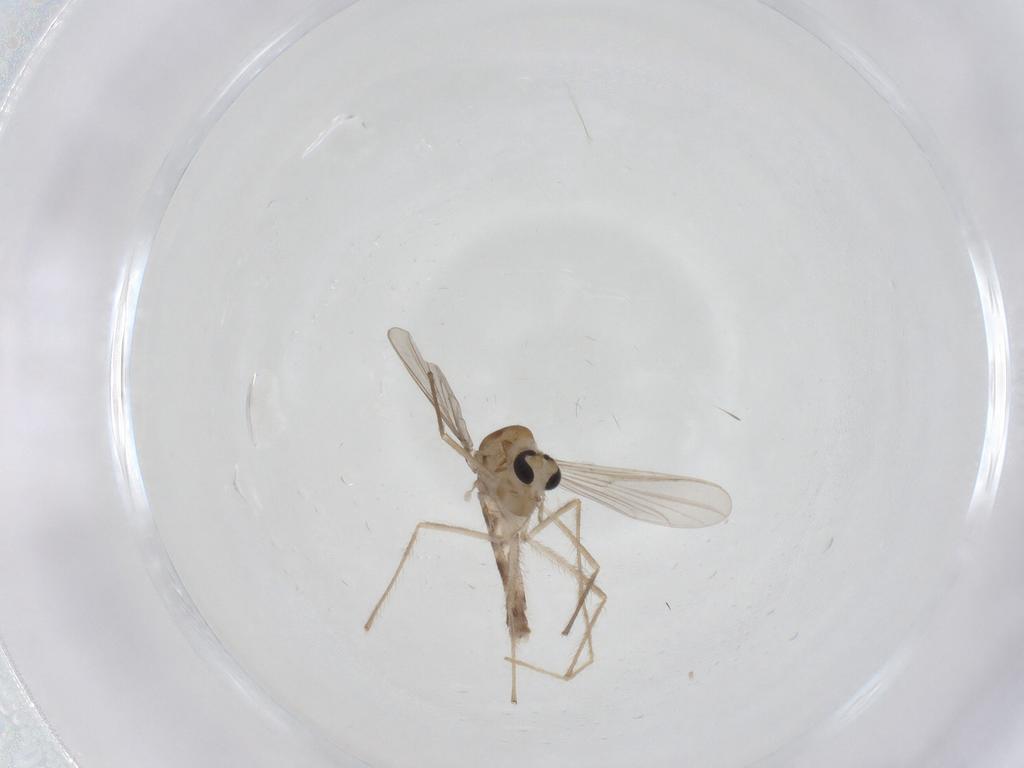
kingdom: Animalia
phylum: Arthropoda
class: Insecta
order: Diptera
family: Chironomidae
